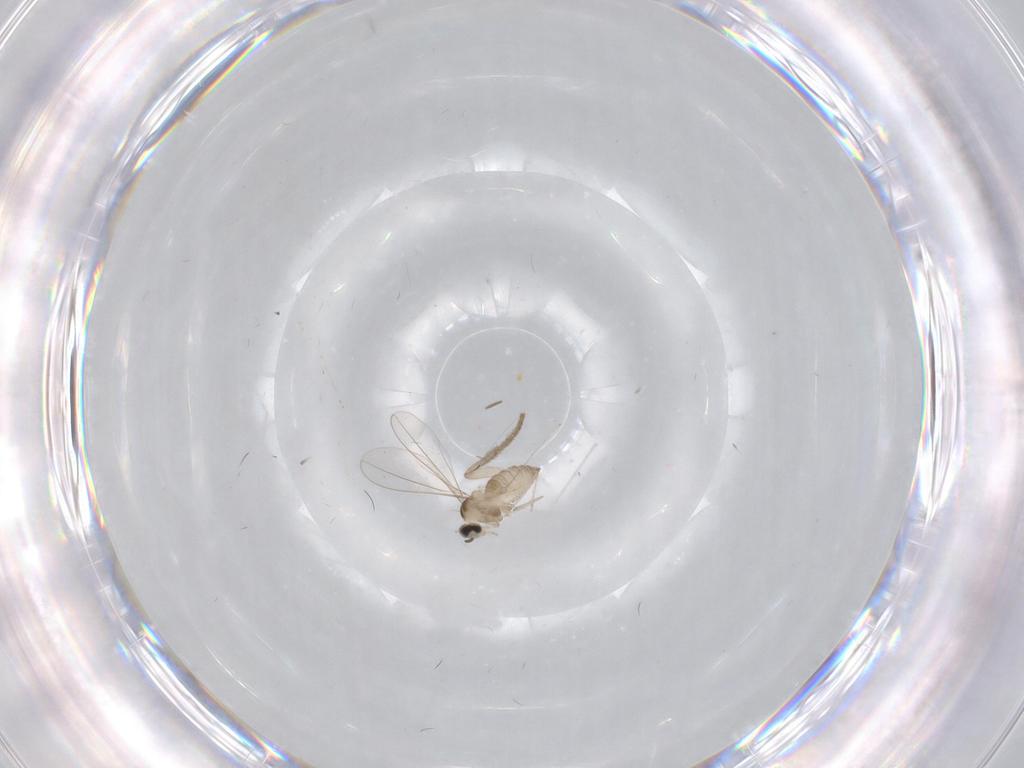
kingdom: Animalia
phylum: Arthropoda
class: Insecta
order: Diptera
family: Cecidomyiidae
